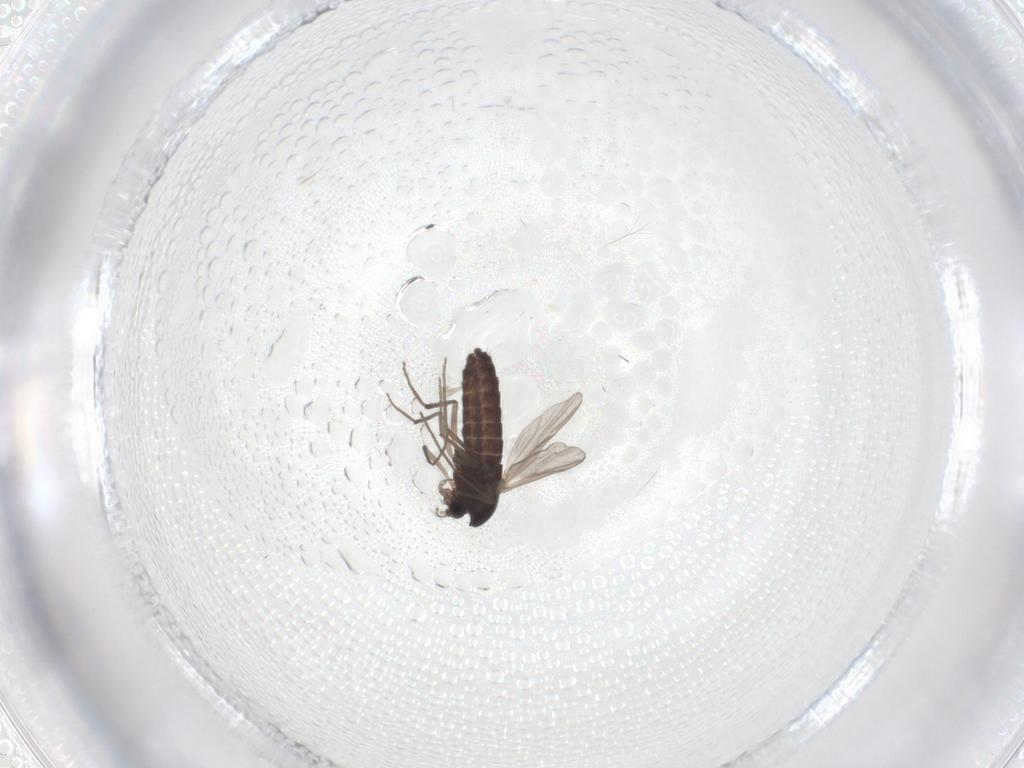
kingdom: Animalia
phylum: Arthropoda
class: Insecta
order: Diptera
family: Chironomidae
